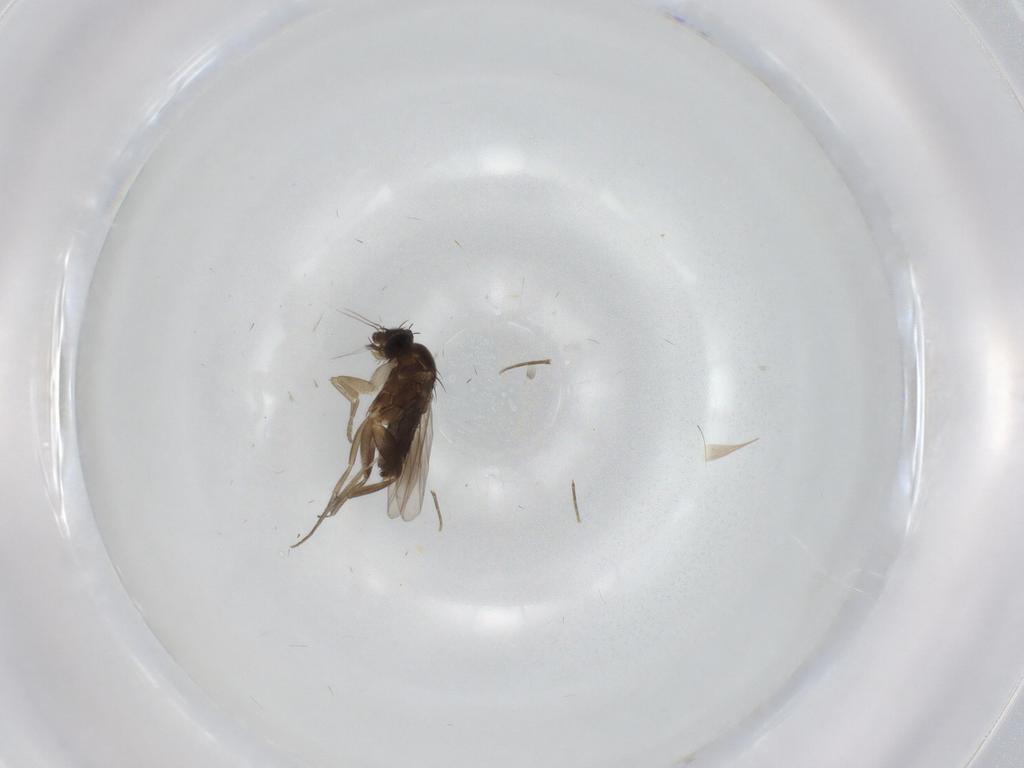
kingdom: Animalia
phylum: Arthropoda
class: Insecta
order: Diptera
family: Phoridae
